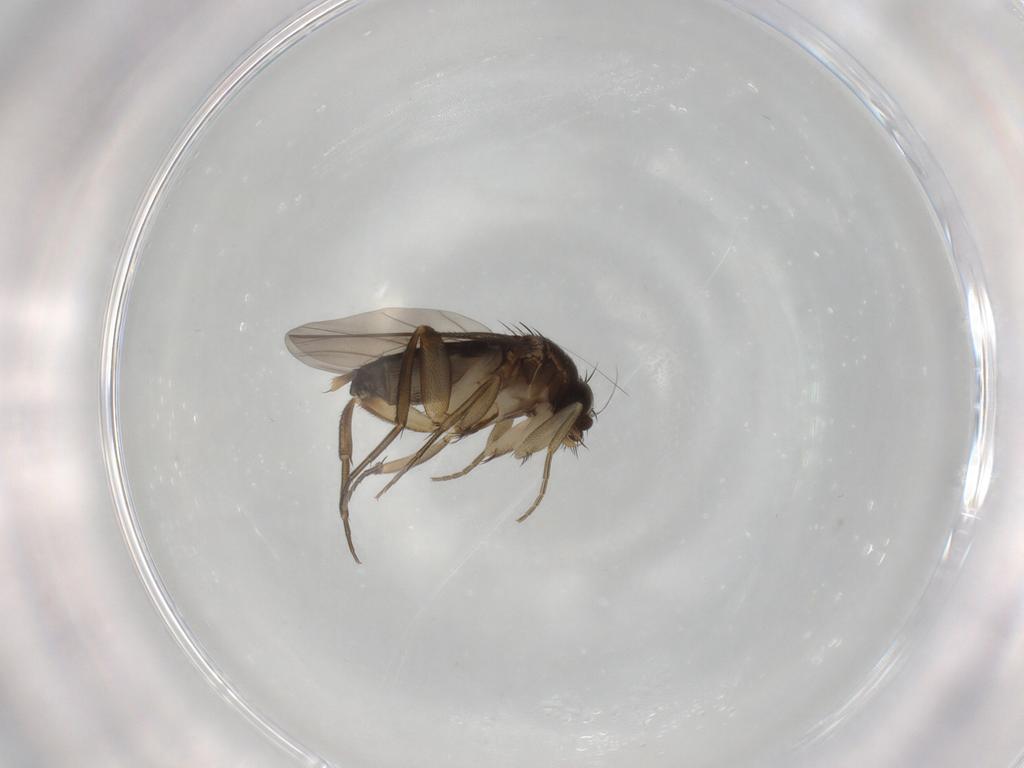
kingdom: Animalia
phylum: Arthropoda
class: Insecta
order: Diptera
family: Phoridae
